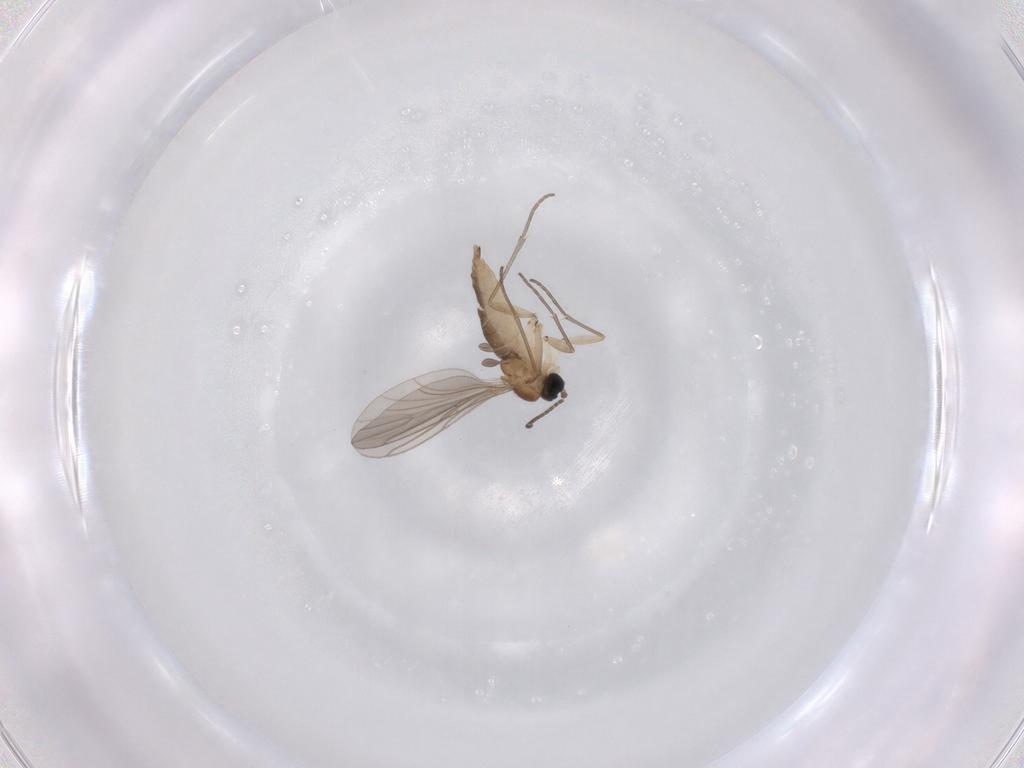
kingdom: Animalia
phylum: Arthropoda
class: Insecta
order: Diptera
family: Sciaridae
